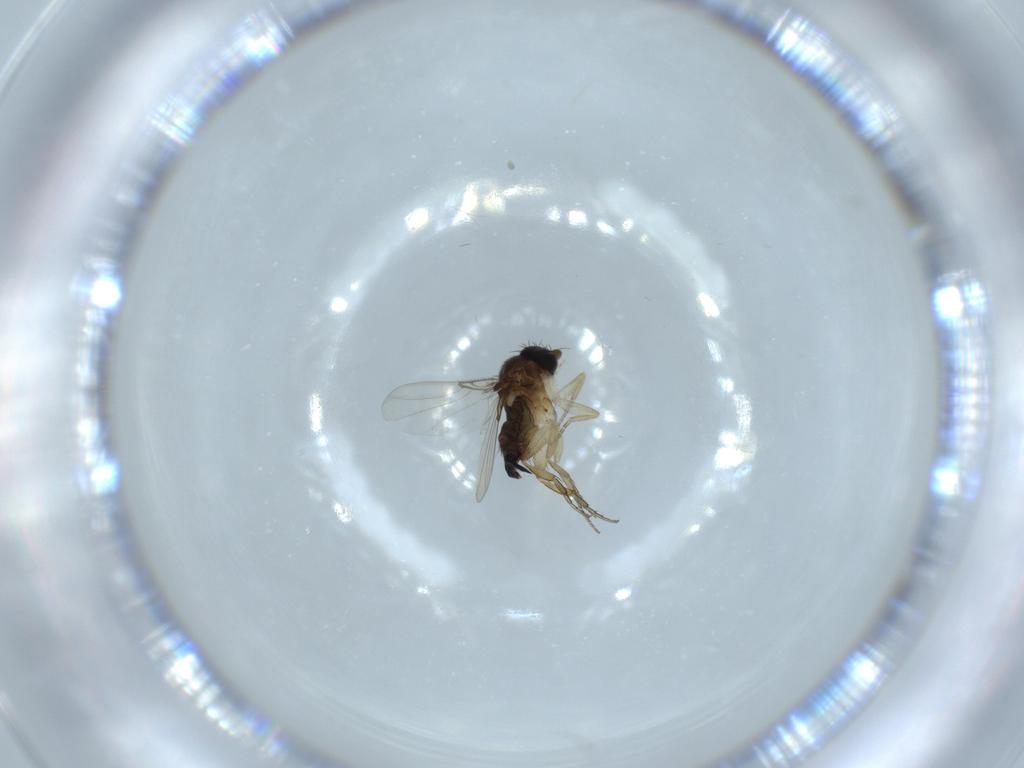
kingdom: Animalia
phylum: Arthropoda
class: Insecta
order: Diptera
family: Phoridae
